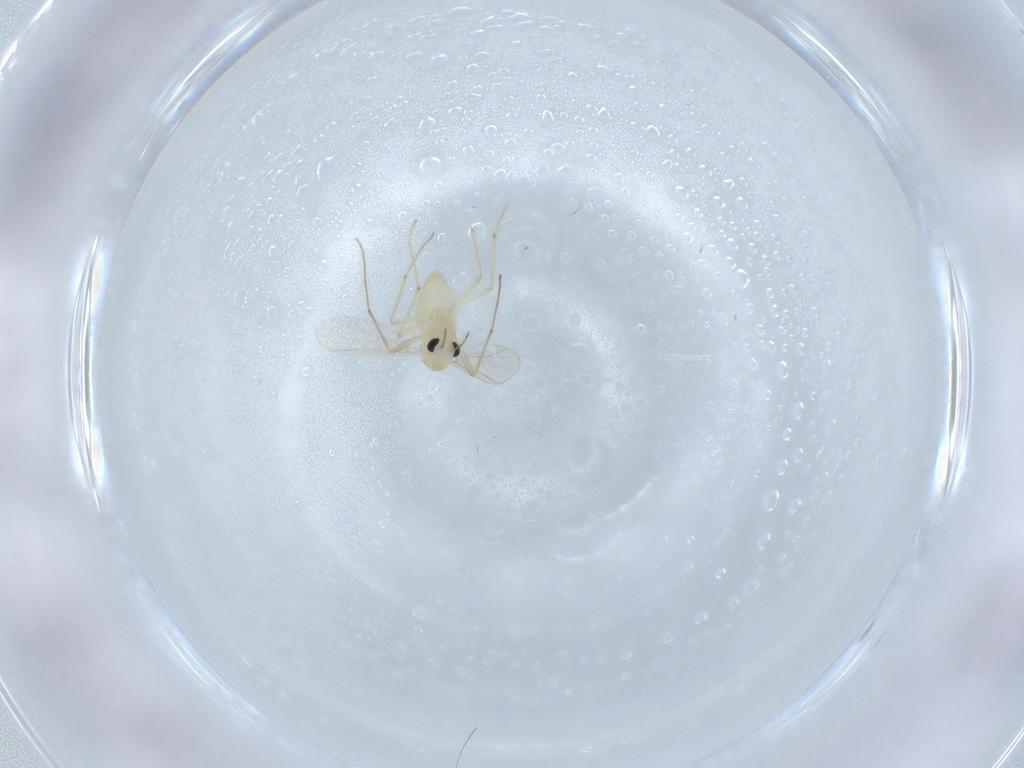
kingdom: Animalia
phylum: Arthropoda
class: Insecta
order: Diptera
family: Chironomidae
